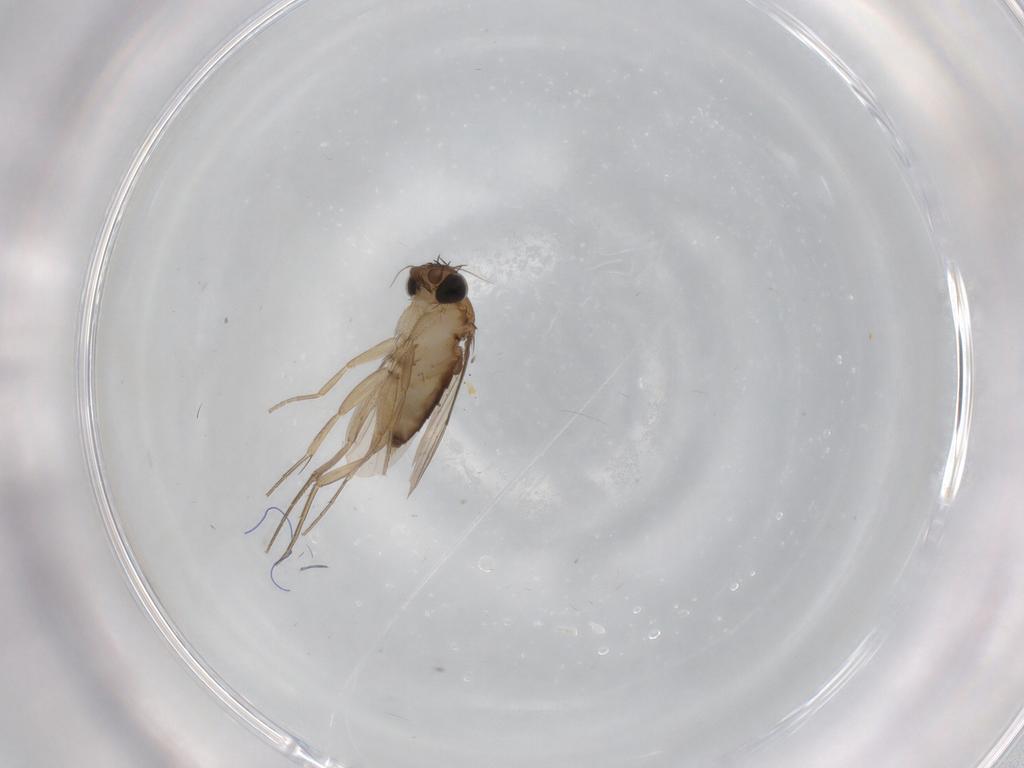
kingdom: Animalia
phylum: Arthropoda
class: Insecta
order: Diptera
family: Phoridae
